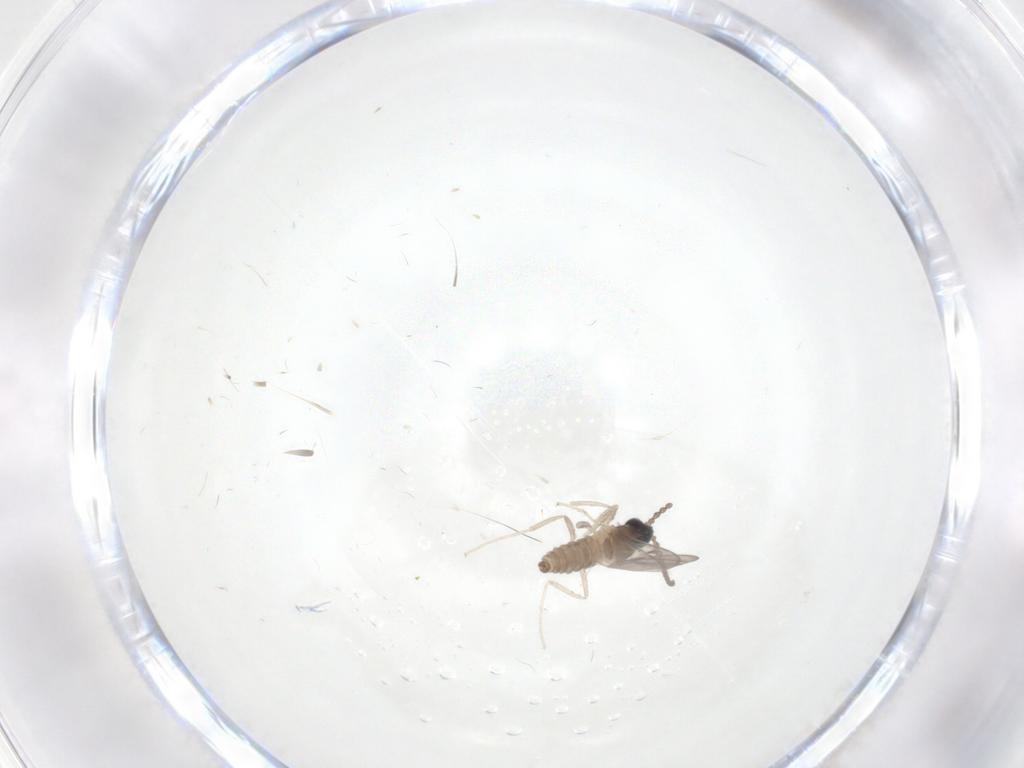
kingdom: Animalia
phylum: Arthropoda
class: Insecta
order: Diptera
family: Cecidomyiidae
